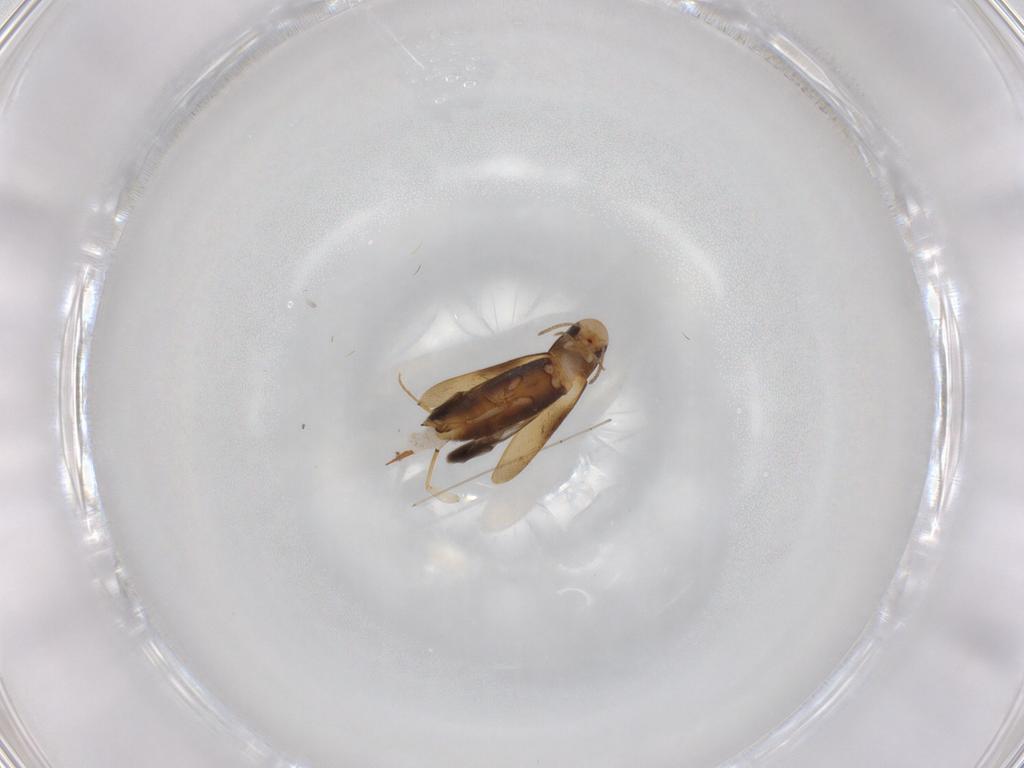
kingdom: Animalia
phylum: Arthropoda
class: Insecta
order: Coleoptera
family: Mordellidae
